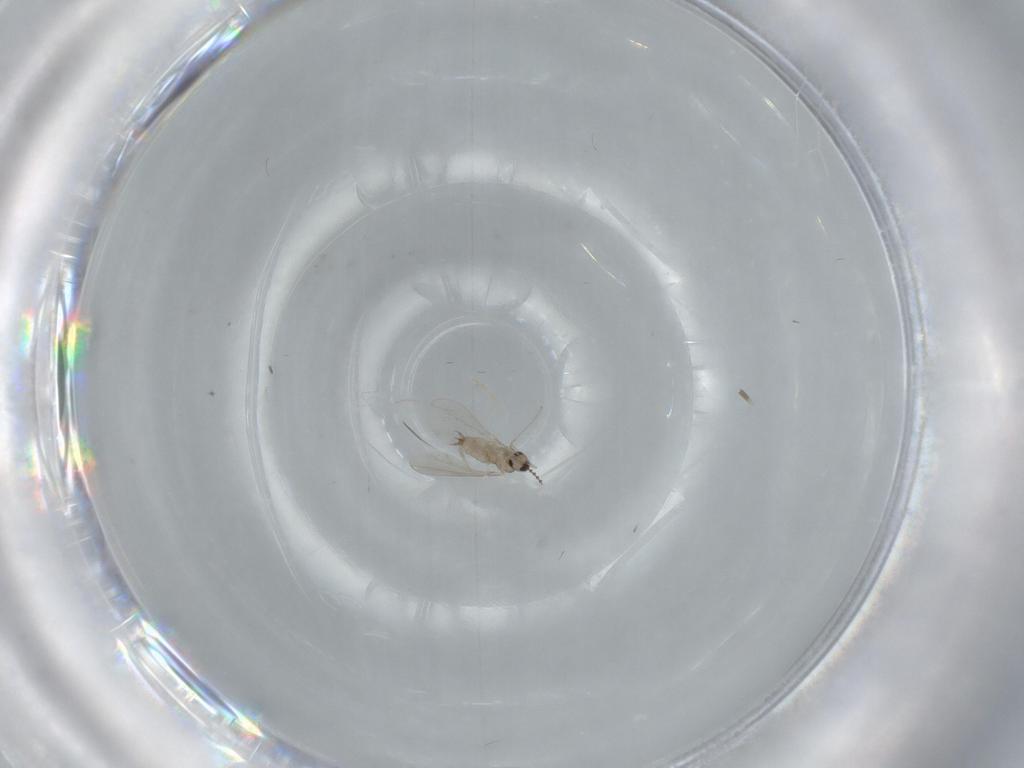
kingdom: Animalia
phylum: Arthropoda
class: Insecta
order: Diptera
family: Cecidomyiidae
